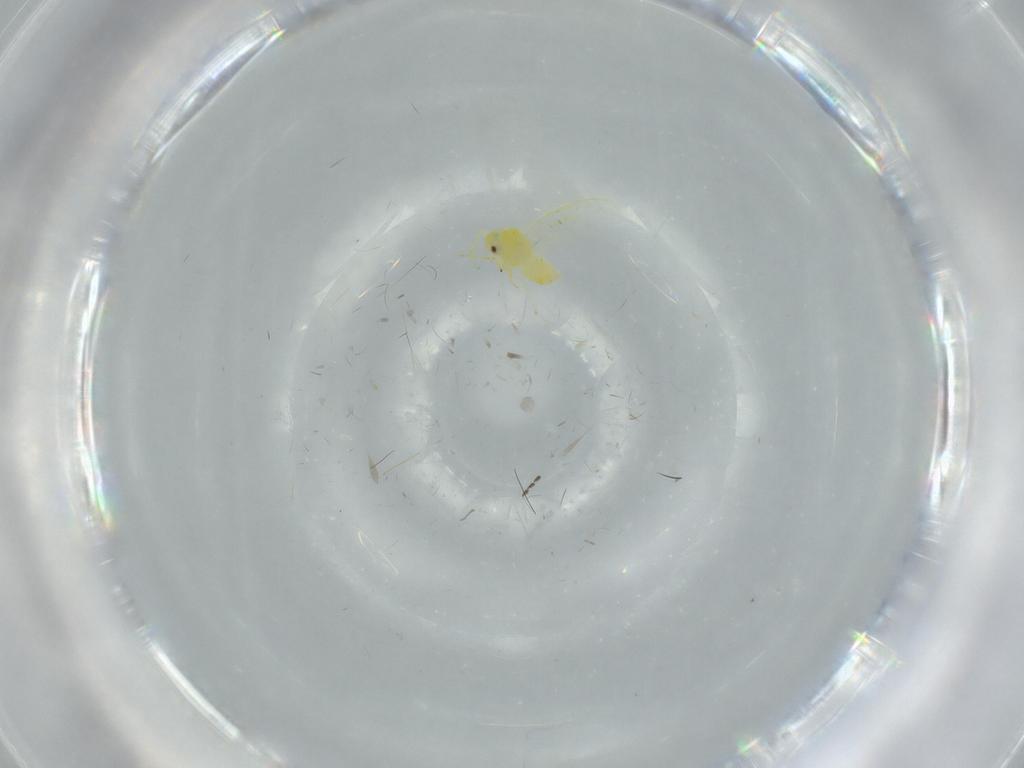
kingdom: Animalia
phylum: Arthropoda
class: Insecta
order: Hemiptera
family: Aleyrodidae
